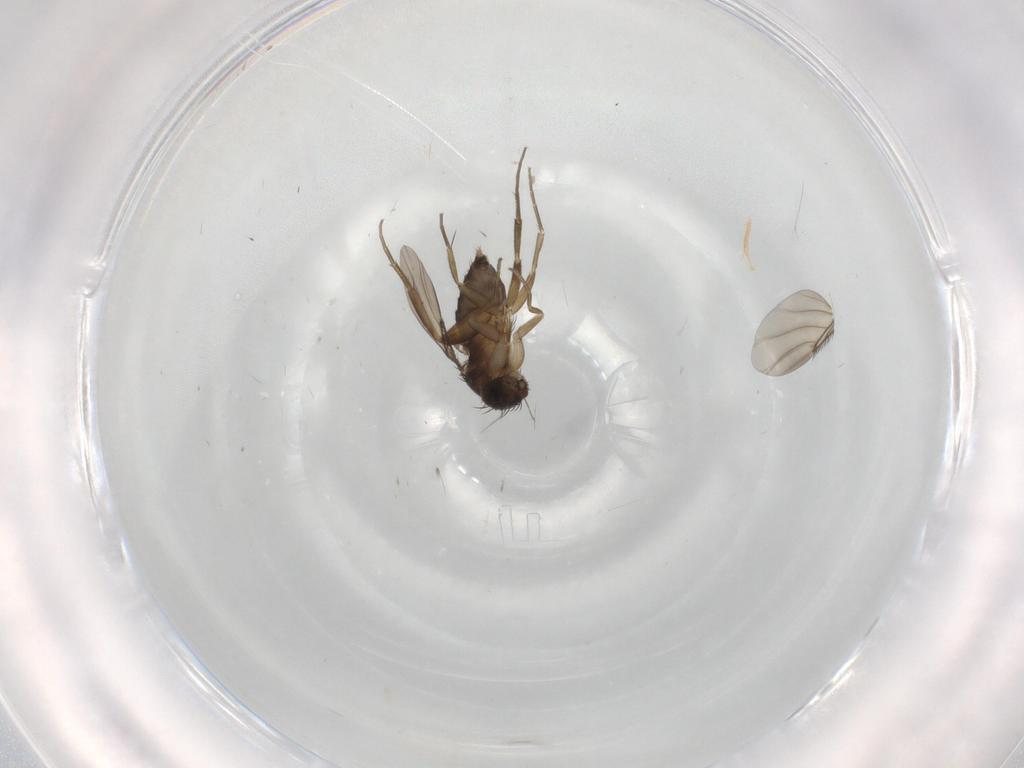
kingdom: Animalia
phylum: Arthropoda
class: Insecta
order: Diptera
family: Phoridae
